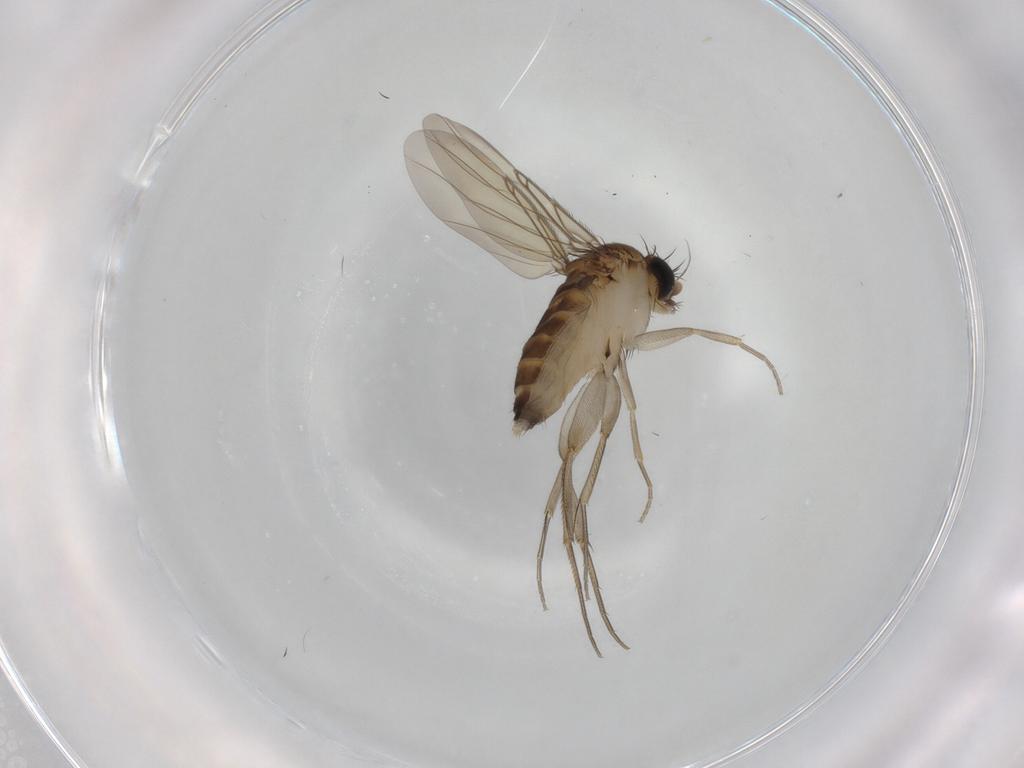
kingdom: Animalia
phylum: Arthropoda
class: Insecta
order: Diptera
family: Phoridae
